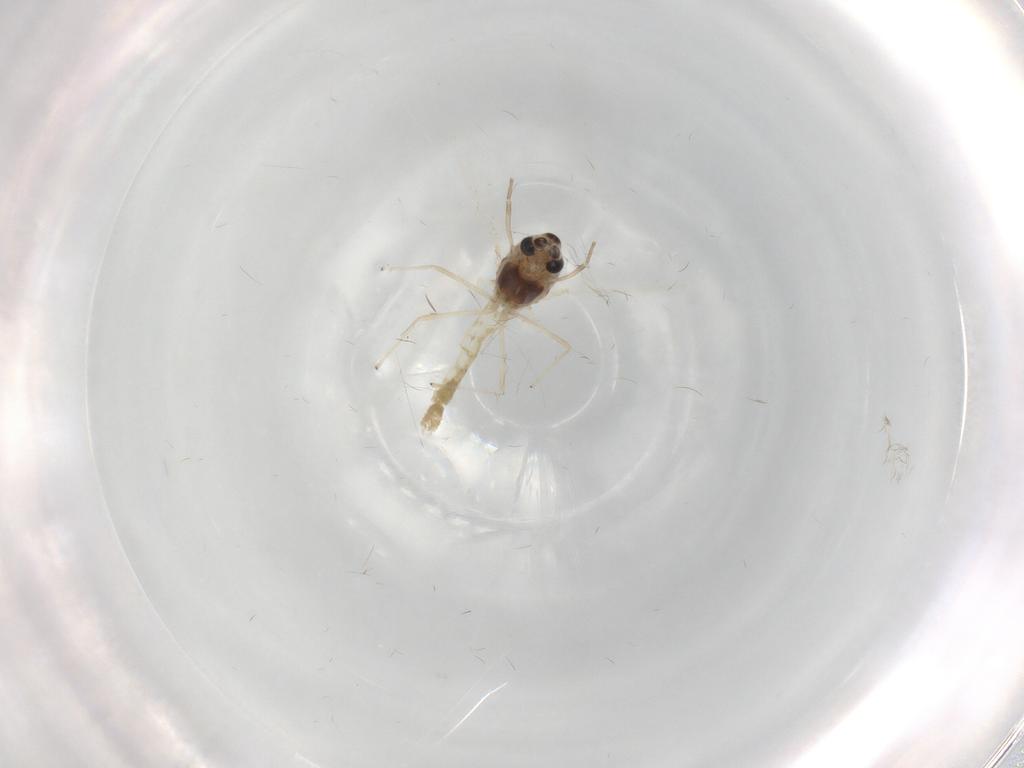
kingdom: Animalia
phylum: Arthropoda
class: Insecta
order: Diptera
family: Chironomidae
